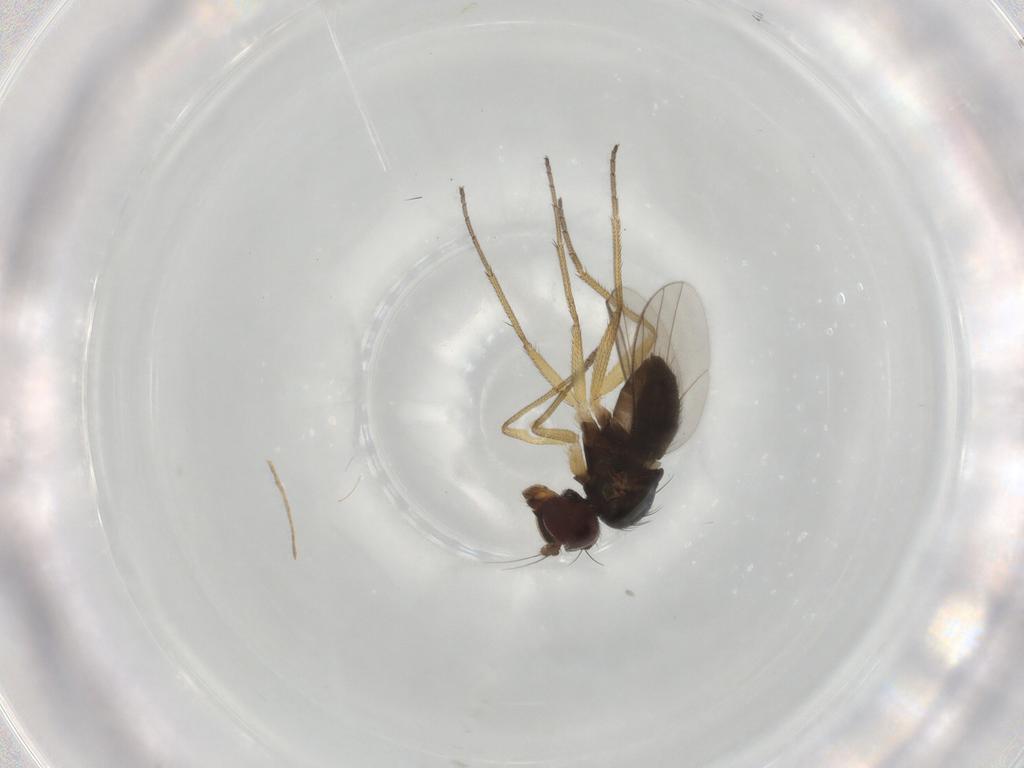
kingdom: Animalia
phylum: Arthropoda
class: Insecta
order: Diptera
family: Dolichopodidae
